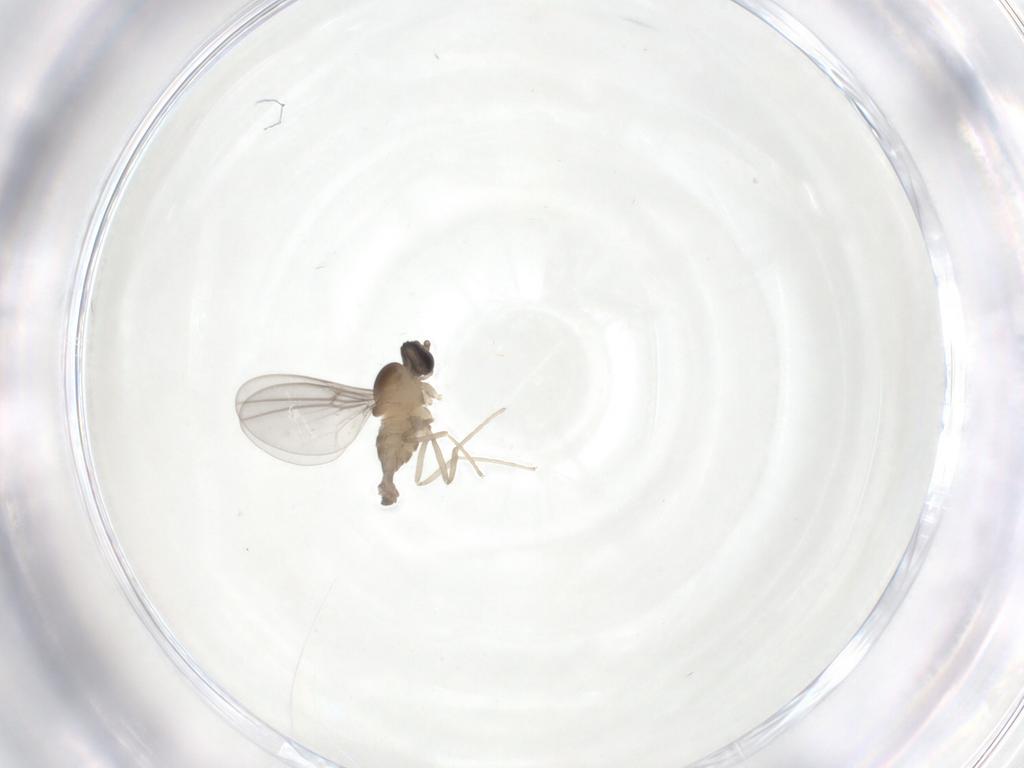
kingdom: Animalia
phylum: Arthropoda
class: Insecta
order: Diptera
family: Cecidomyiidae
